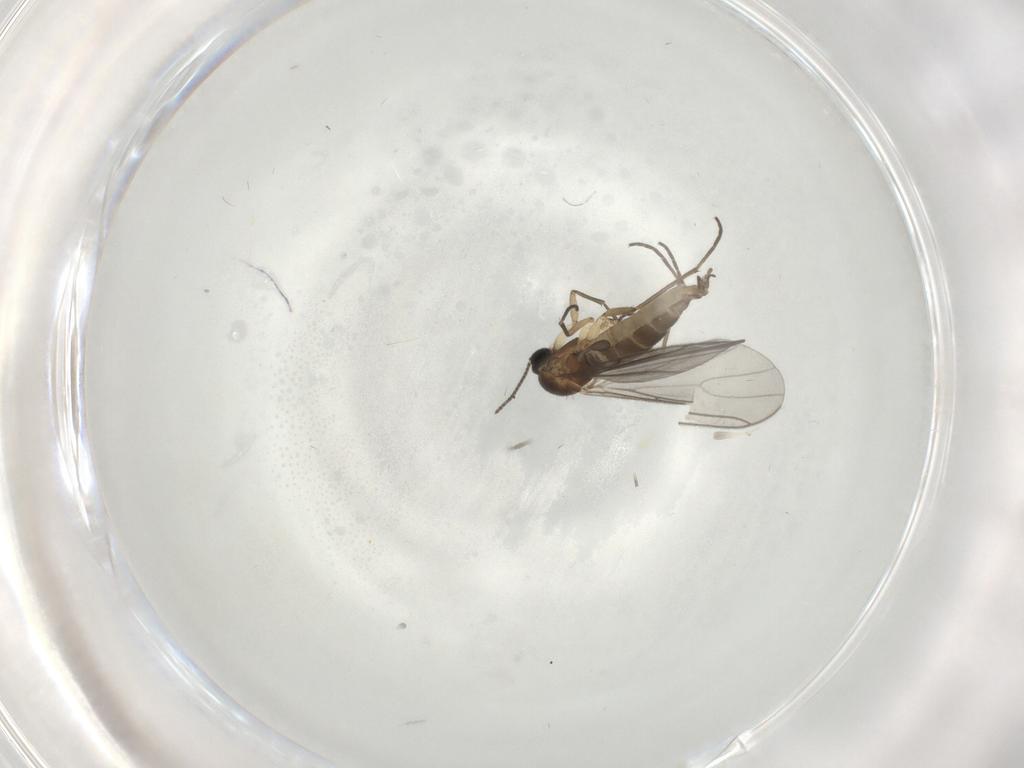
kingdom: Animalia
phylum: Arthropoda
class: Insecta
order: Diptera
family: Sciaridae
